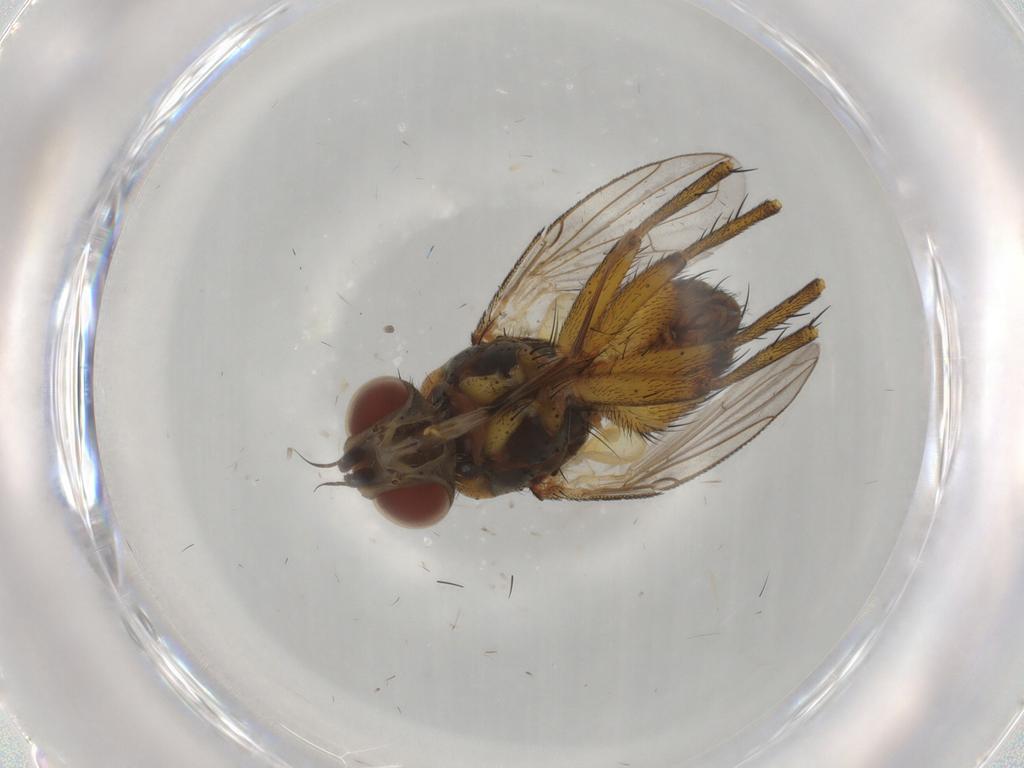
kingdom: Animalia
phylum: Arthropoda
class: Insecta
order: Diptera
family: Tachinidae
